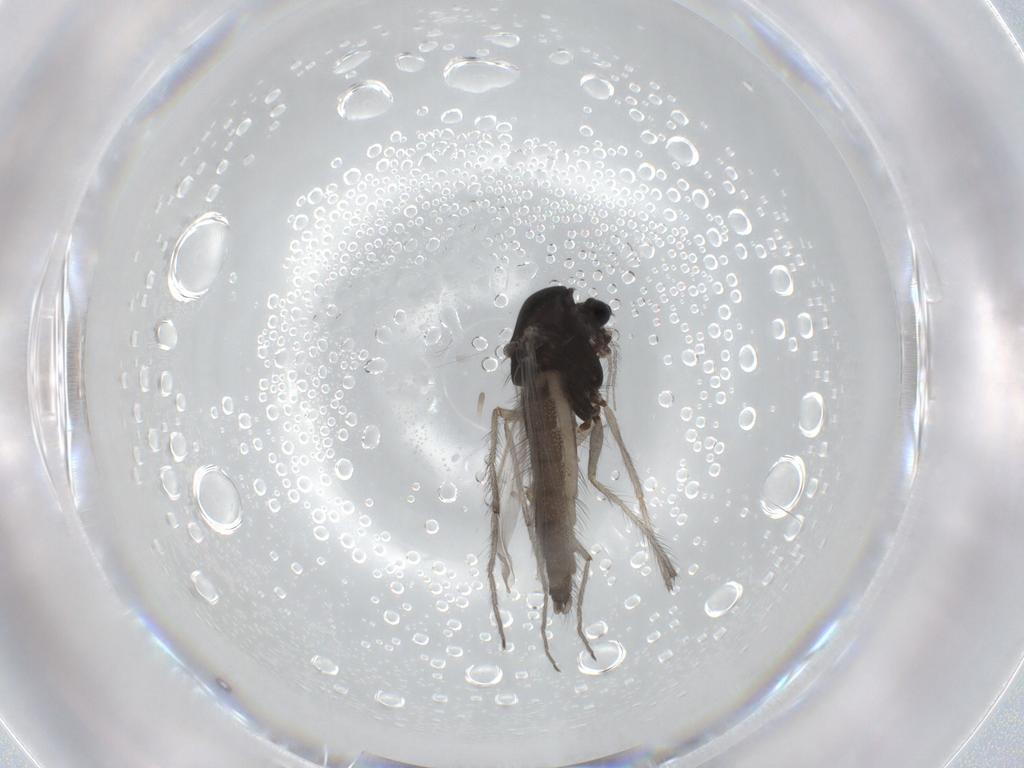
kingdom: Animalia
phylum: Arthropoda
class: Insecta
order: Diptera
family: Chironomidae
